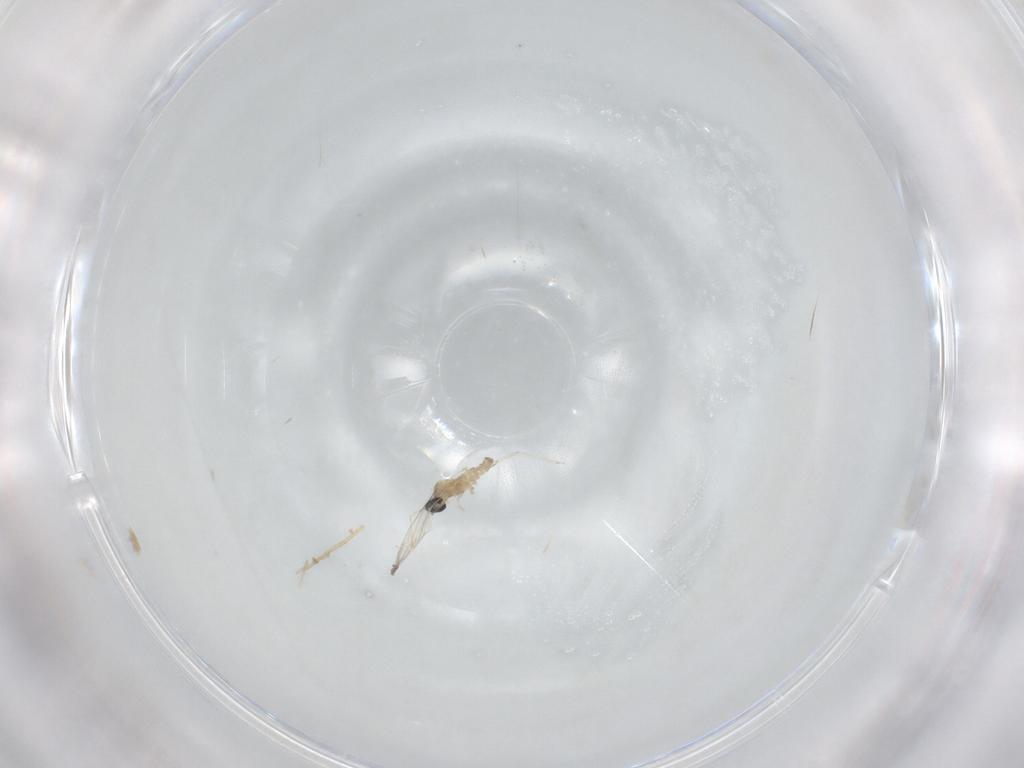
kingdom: Animalia
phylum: Arthropoda
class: Insecta
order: Diptera
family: Cecidomyiidae
